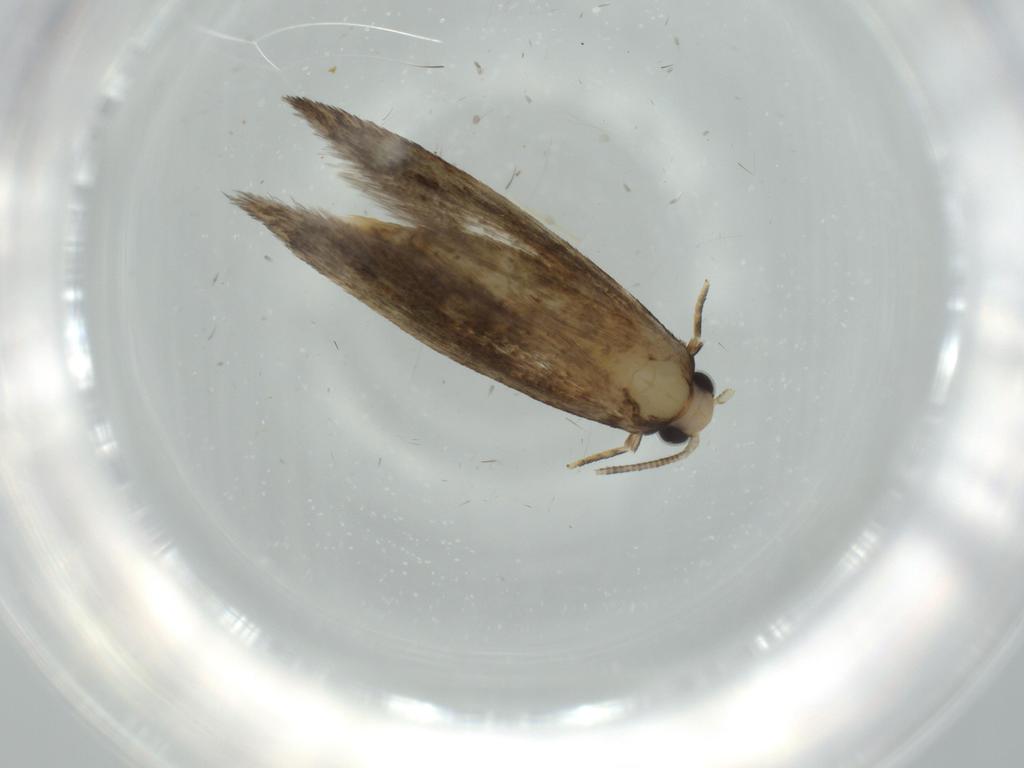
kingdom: Animalia
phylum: Arthropoda
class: Insecta
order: Lepidoptera
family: Tineidae
